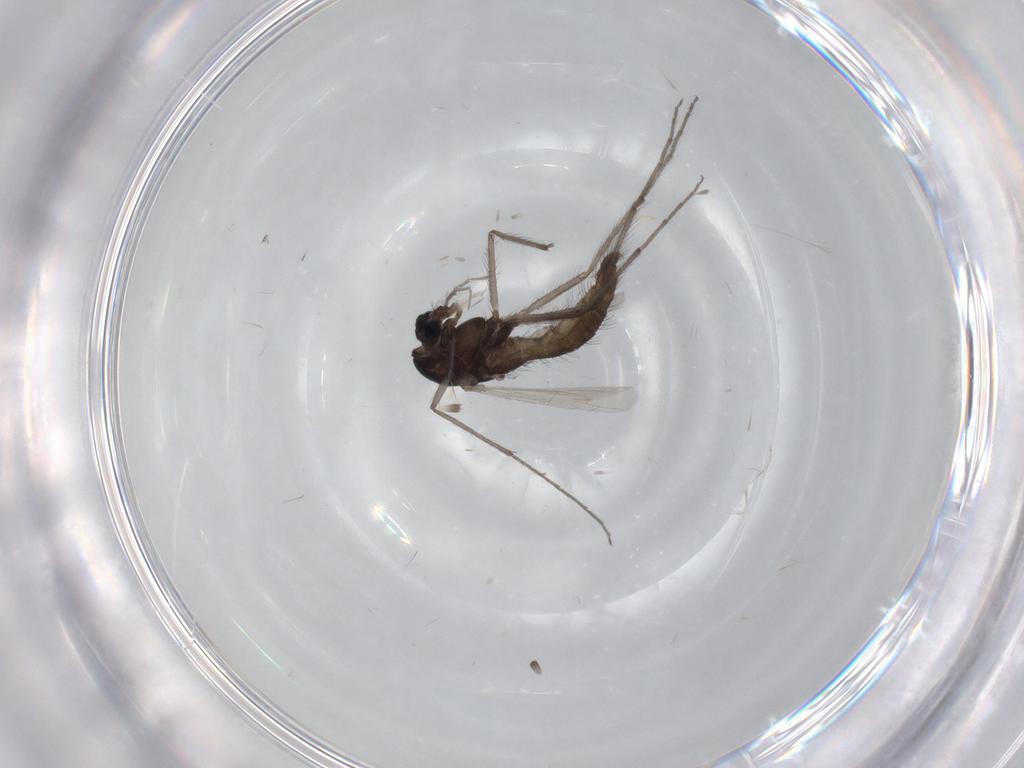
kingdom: Animalia
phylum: Arthropoda
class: Insecta
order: Diptera
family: Chironomidae
